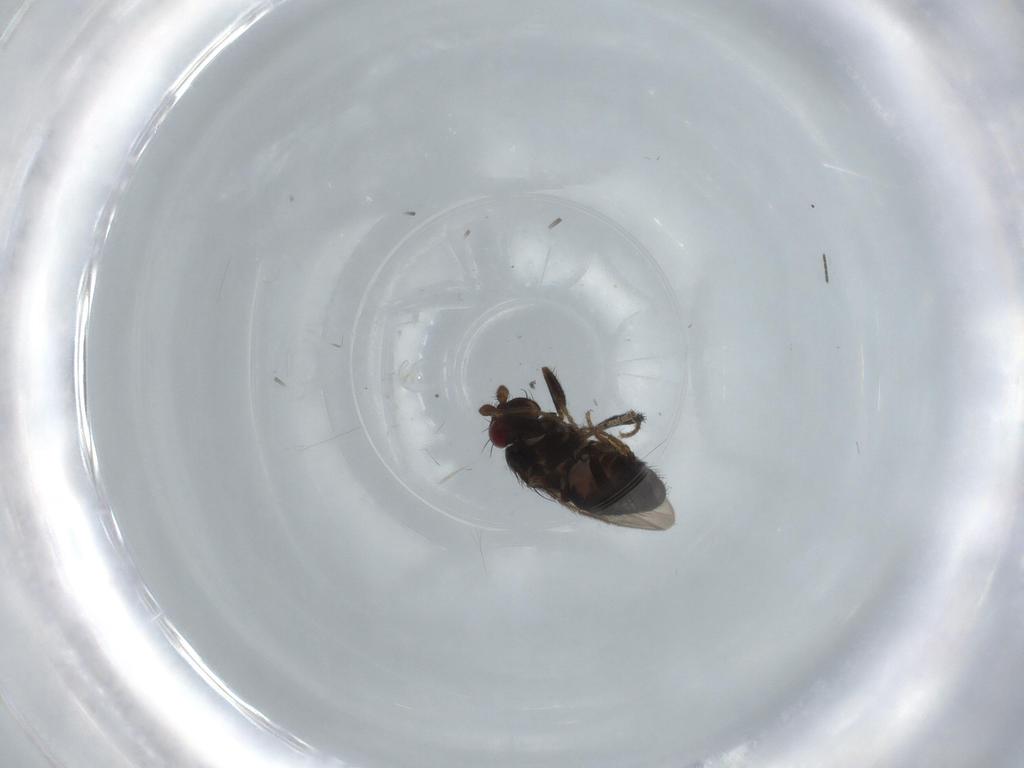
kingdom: Animalia
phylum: Arthropoda
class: Insecta
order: Diptera
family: Sphaeroceridae
